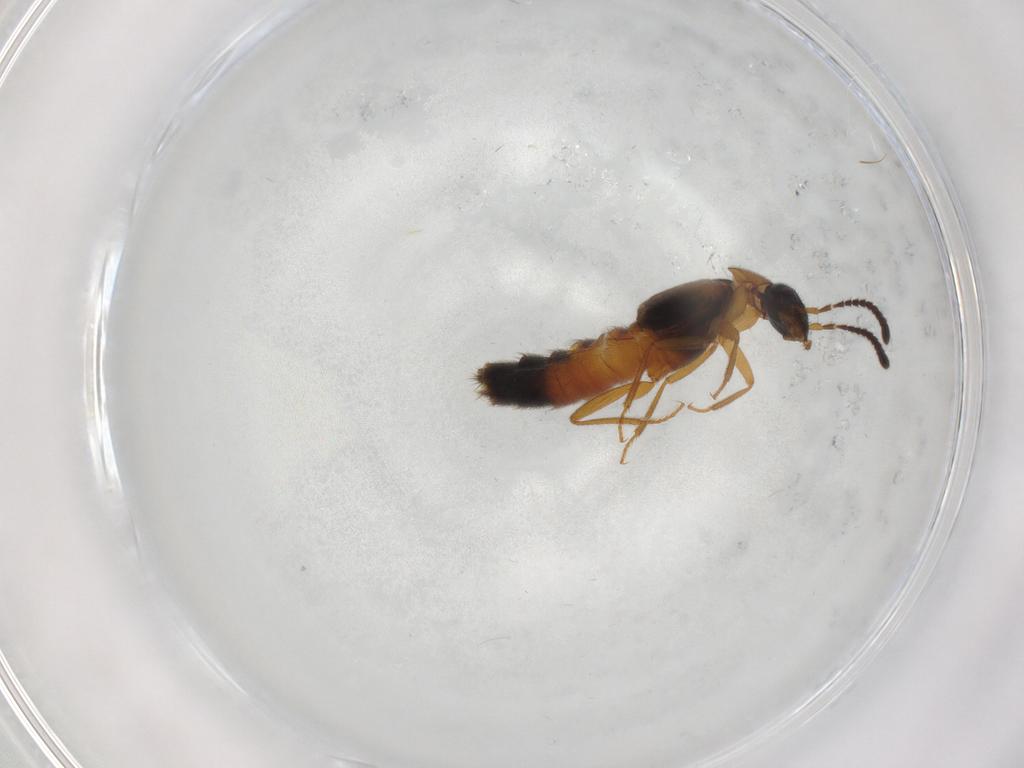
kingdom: Animalia
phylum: Arthropoda
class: Insecta
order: Coleoptera
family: Staphylinidae
